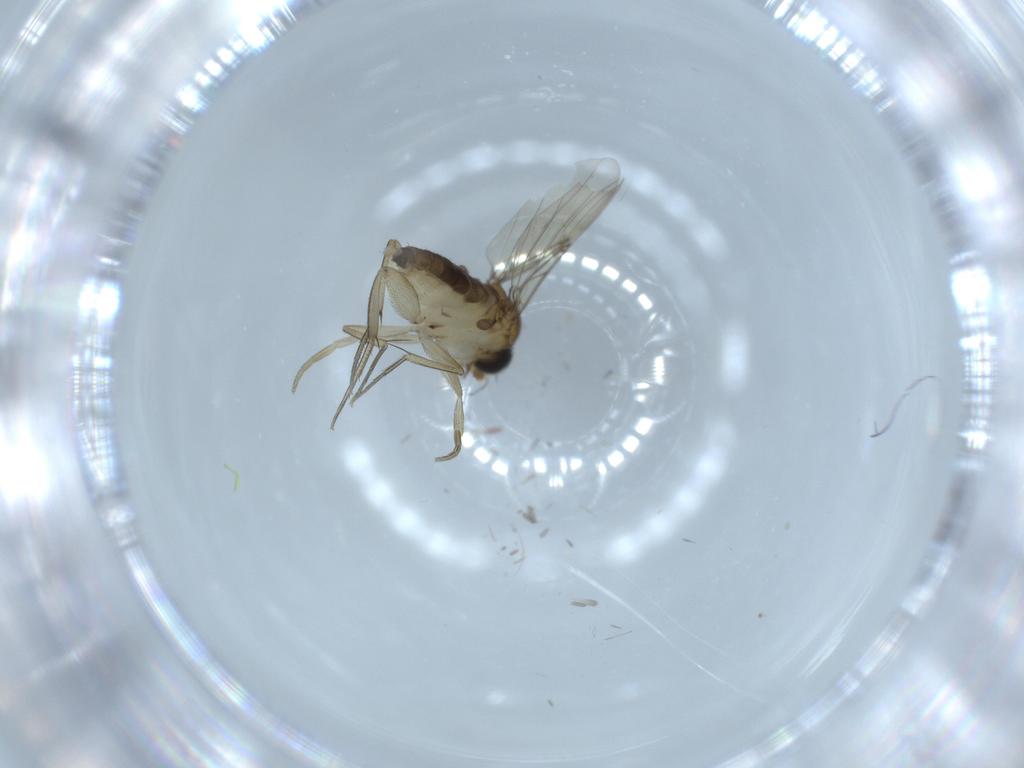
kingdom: Animalia
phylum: Arthropoda
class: Insecta
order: Diptera
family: Phoridae
